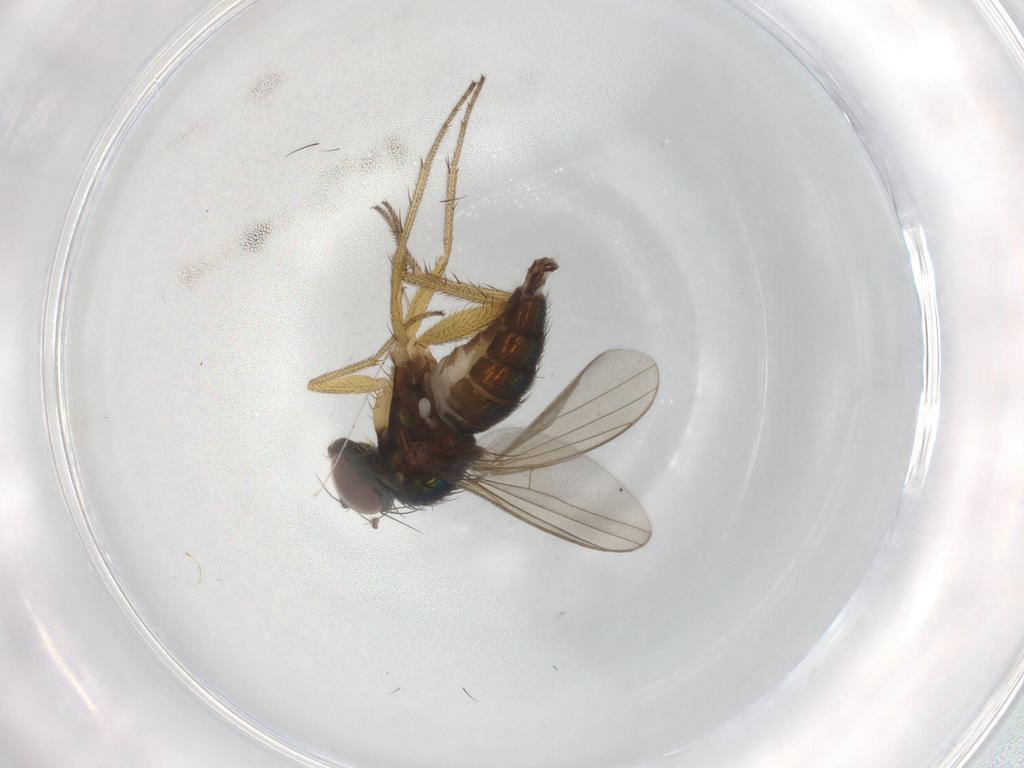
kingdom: Animalia
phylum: Arthropoda
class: Insecta
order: Diptera
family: Dolichopodidae
